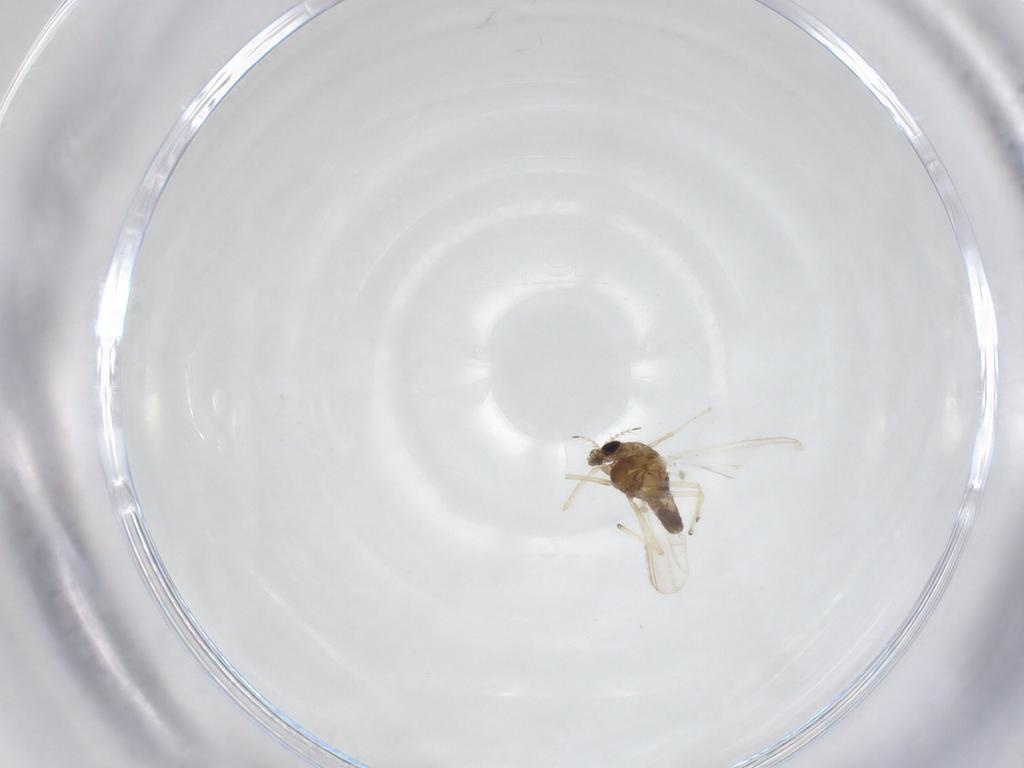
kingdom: Animalia
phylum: Arthropoda
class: Insecta
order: Diptera
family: Chironomidae
